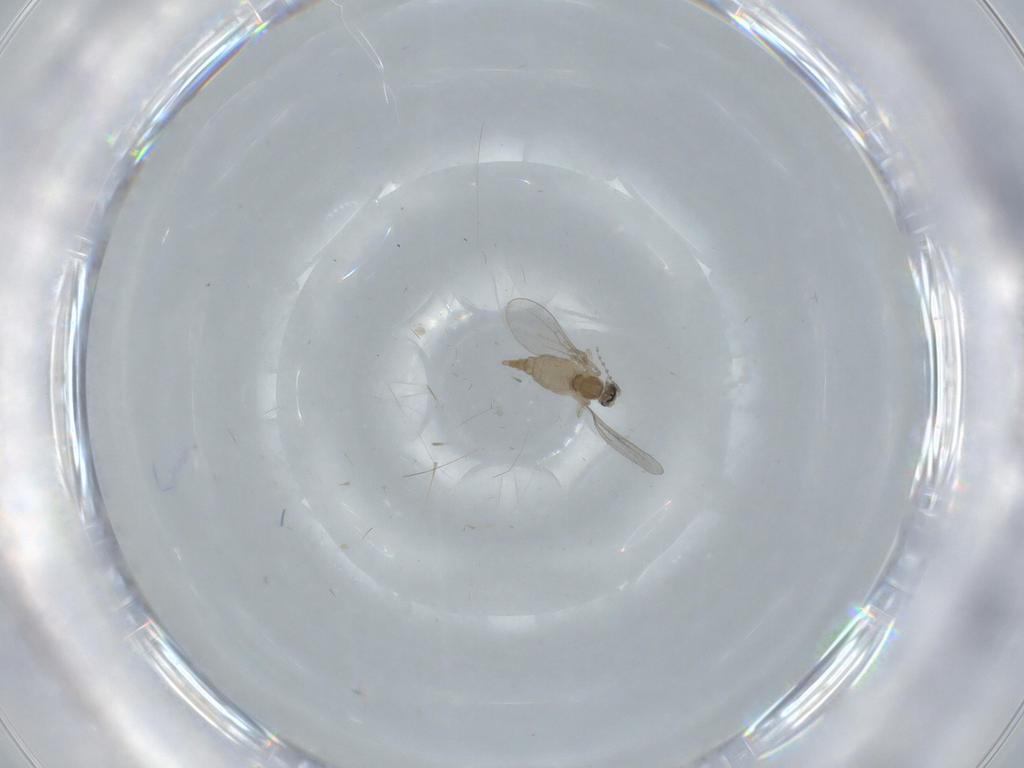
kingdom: Animalia
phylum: Arthropoda
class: Insecta
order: Diptera
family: Cecidomyiidae
